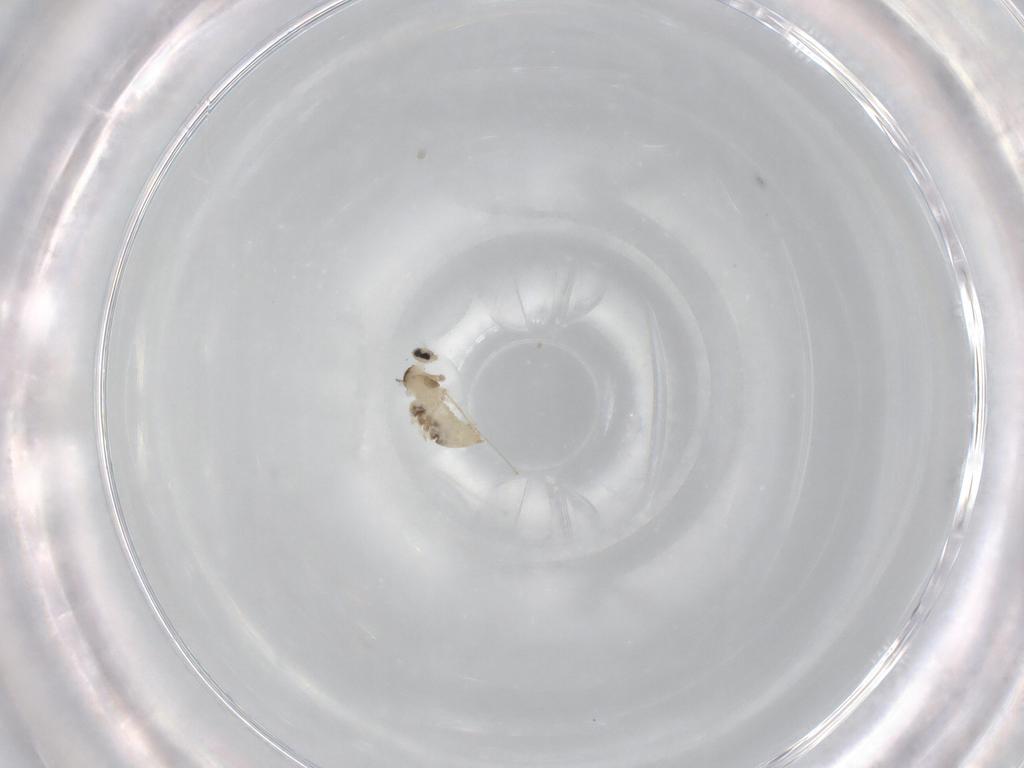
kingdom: Animalia
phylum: Arthropoda
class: Insecta
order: Diptera
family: Cecidomyiidae
